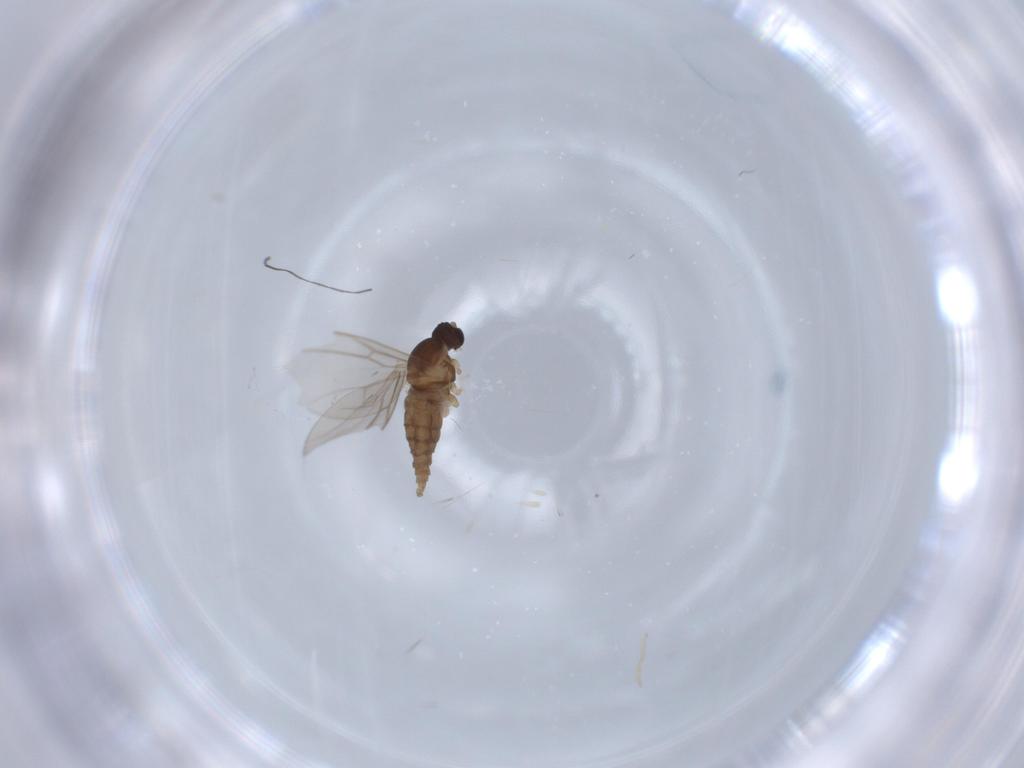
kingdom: Animalia
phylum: Arthropoda
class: Insecta
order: Diptera
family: Cecidomyiidae
